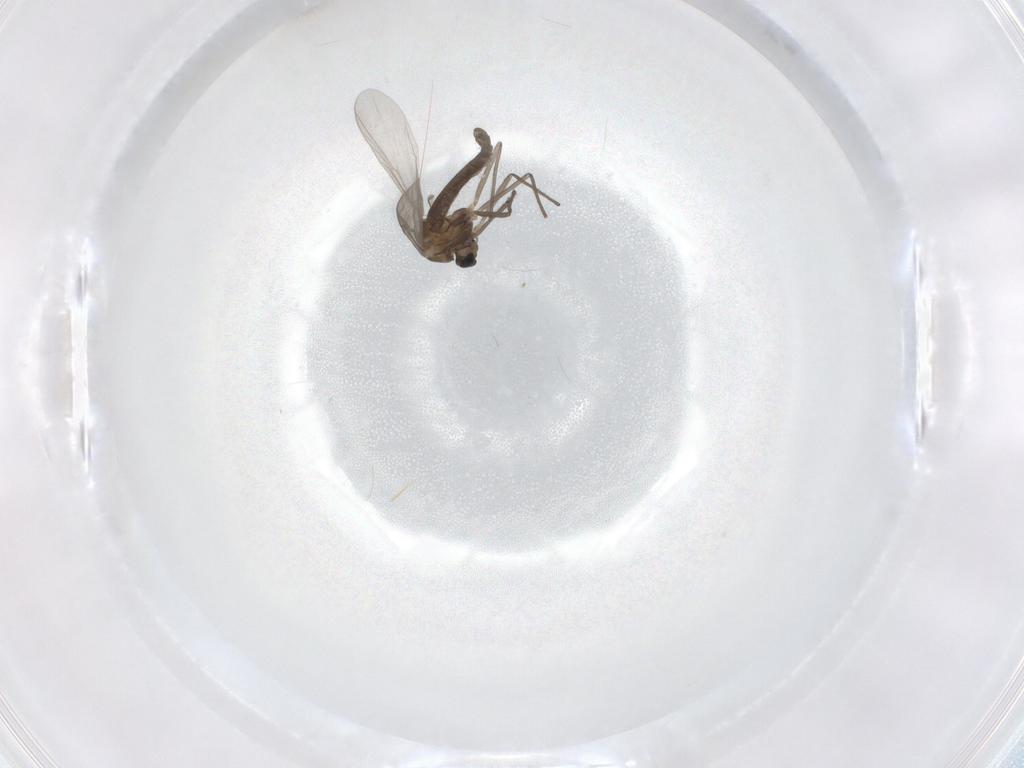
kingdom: Animalia
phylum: Arthropoda
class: Insecta
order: Diptera
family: Chironomidae
